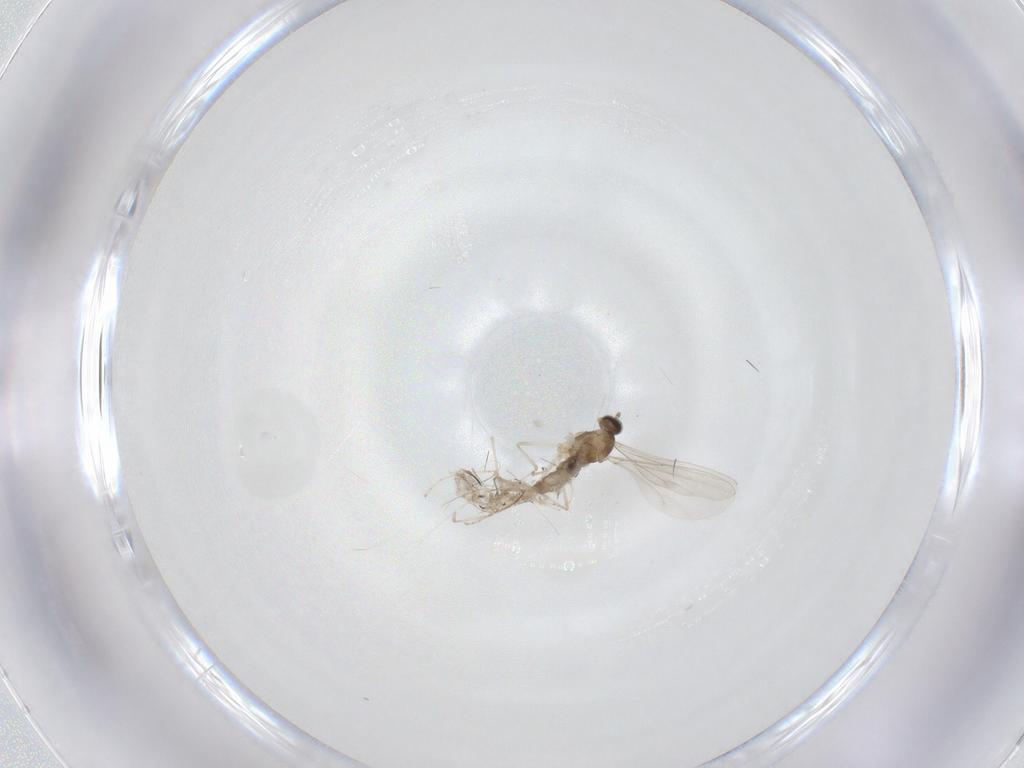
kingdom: Animalia
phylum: Arthropoda
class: Insecta
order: Diptera
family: Cecidomyiidae
